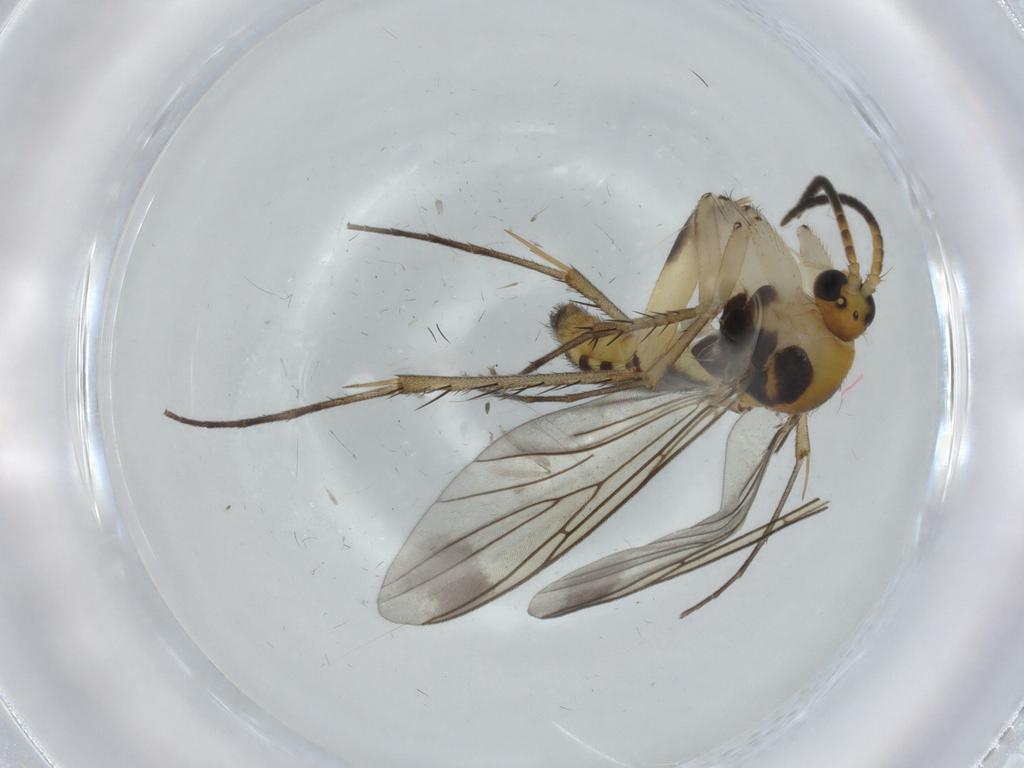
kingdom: Animalia
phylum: Arthropoda
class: Insecta
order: Diptera
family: Mycetophilidae
